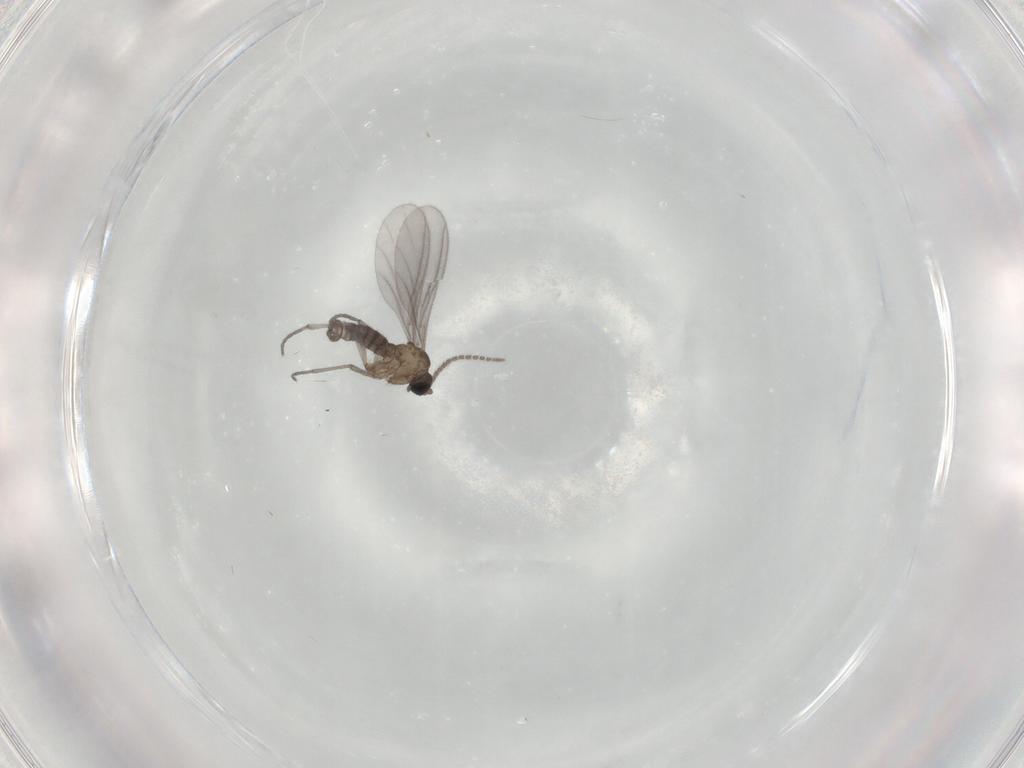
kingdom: Animalia
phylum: Arthropoda
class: Insecta
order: Diptera
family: Sciaridae
